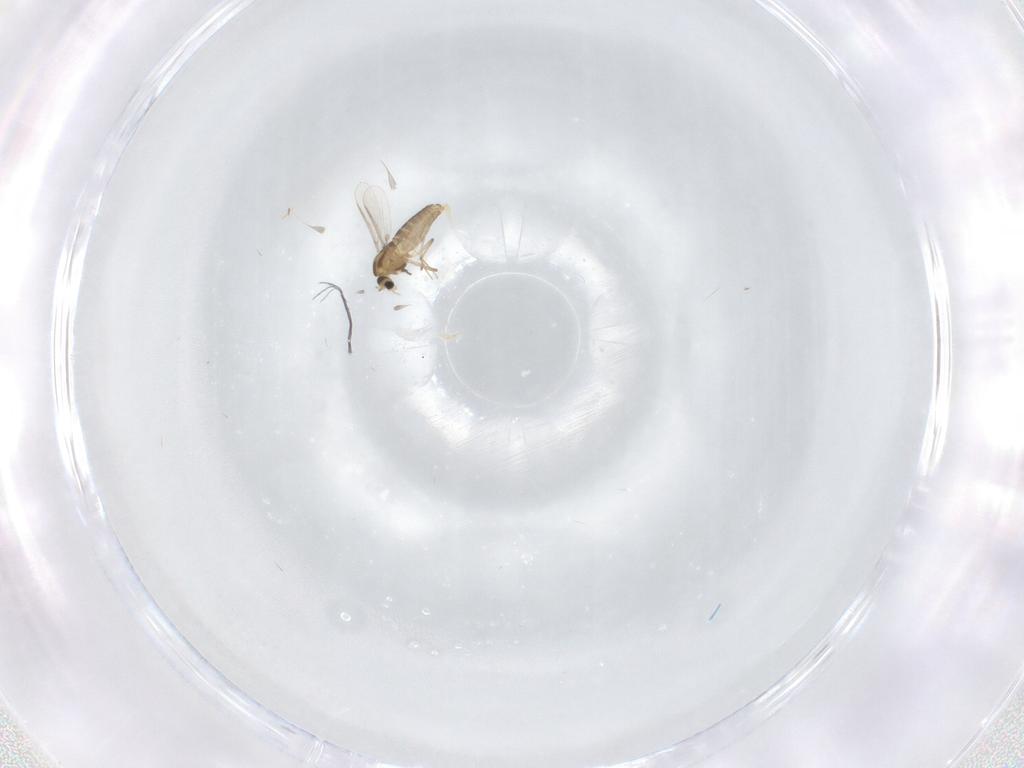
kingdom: Animalia
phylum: Arthropoda
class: Insecta
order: Diptera
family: Chironomidae
